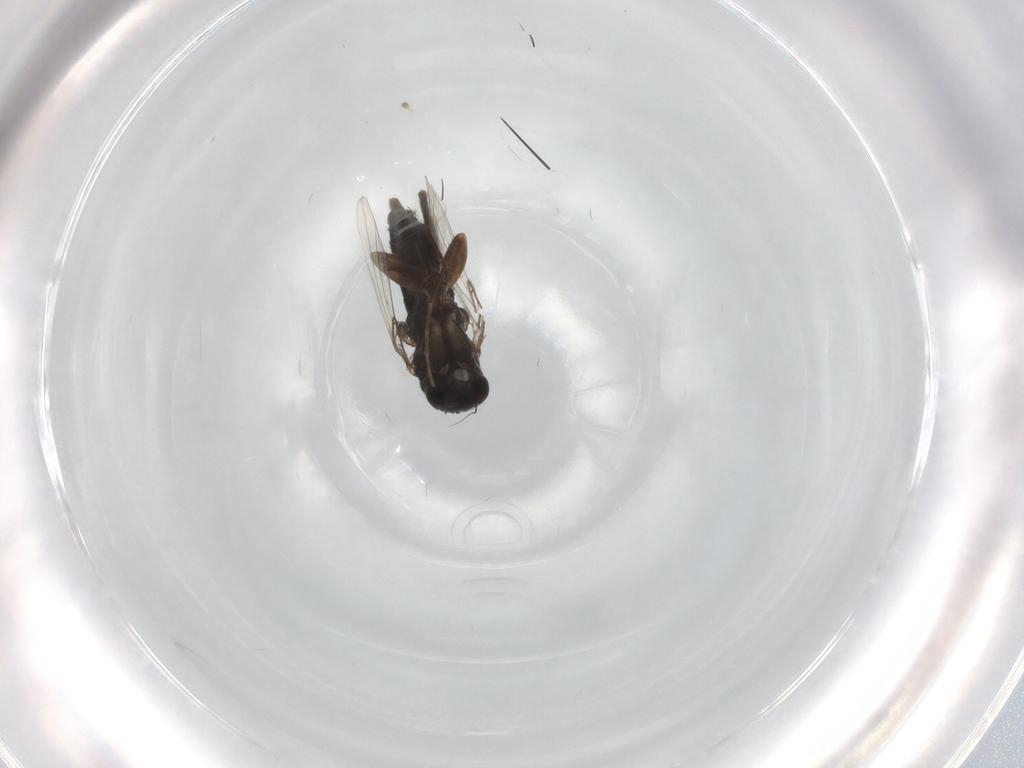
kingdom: Animalia
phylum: Arthropoda
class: Insecta
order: Diptera
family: Phoridae
